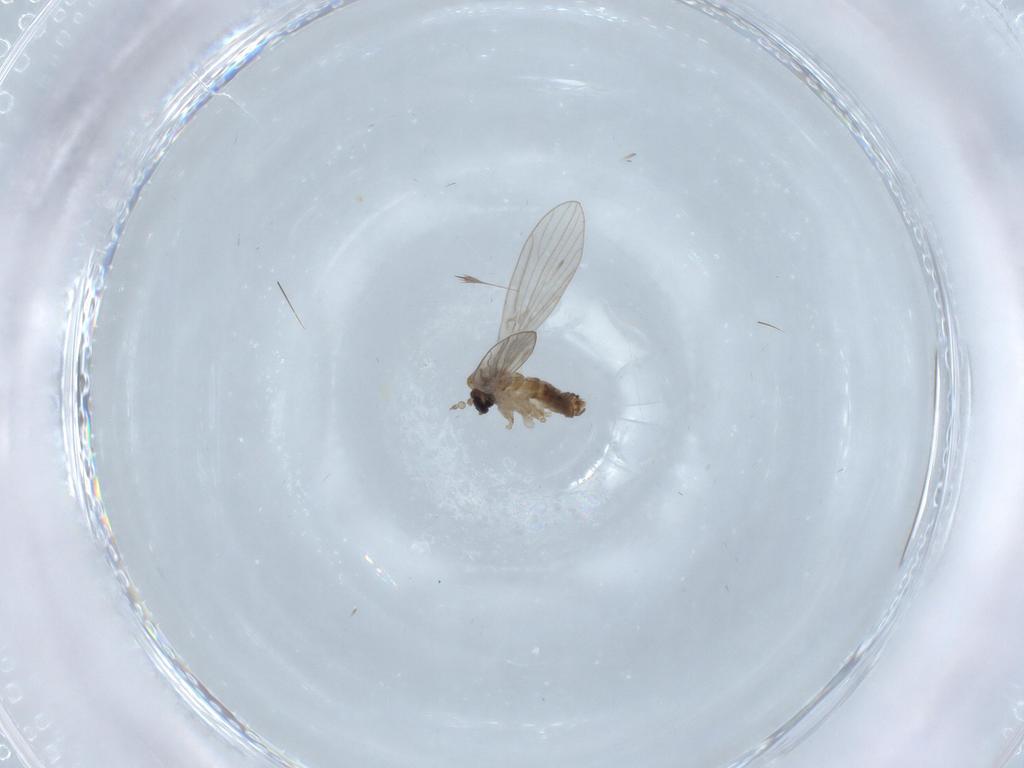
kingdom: Animalia
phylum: Arthropoda
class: Insecta
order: Diptera
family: Psychodidae
